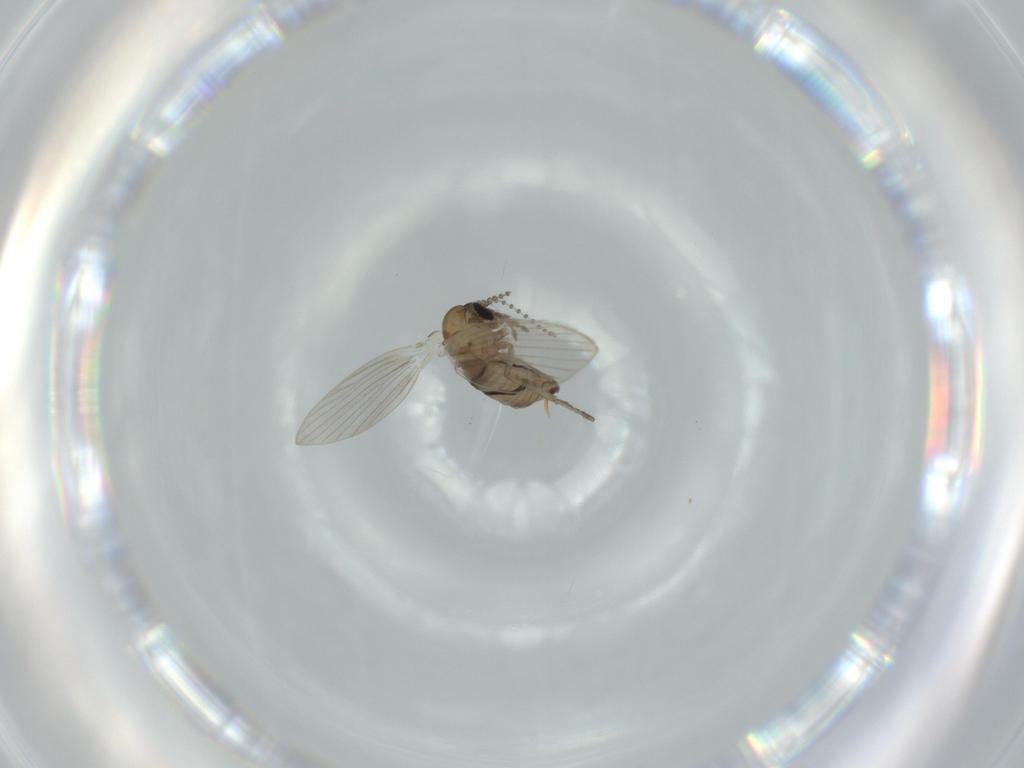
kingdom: Animalia
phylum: Arthropoda
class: Insecta
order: Diptera
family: Psychodidae
